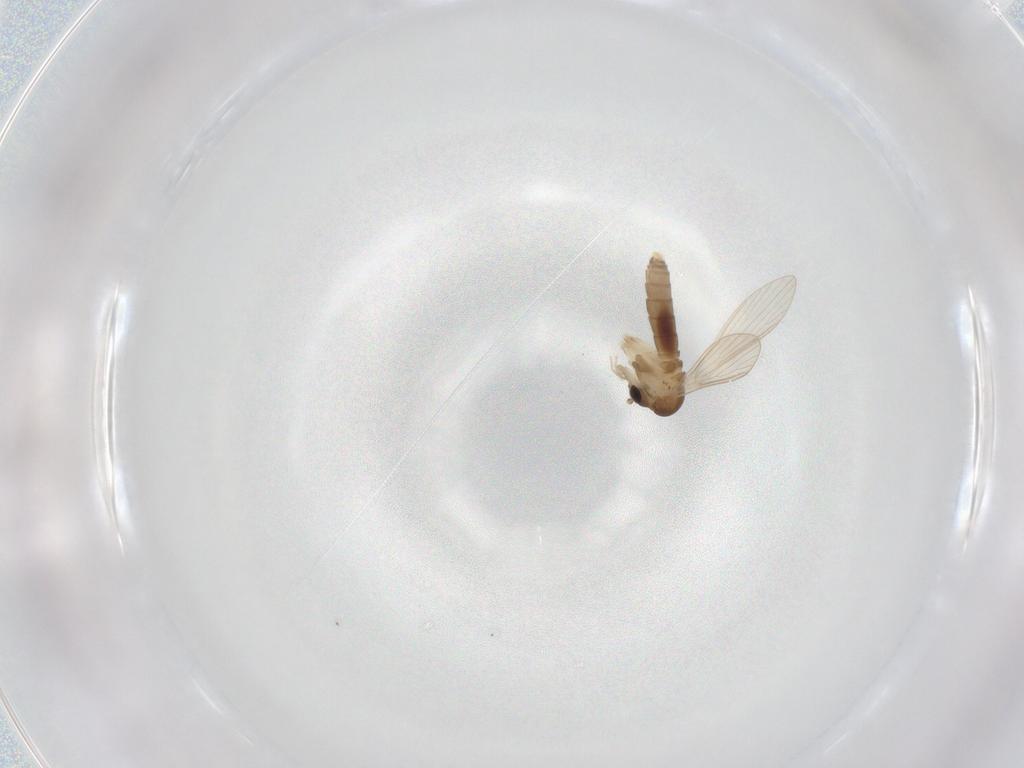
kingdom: Animalia
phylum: Arthropoda
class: Insecta
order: Diptera
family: Psychodidae
